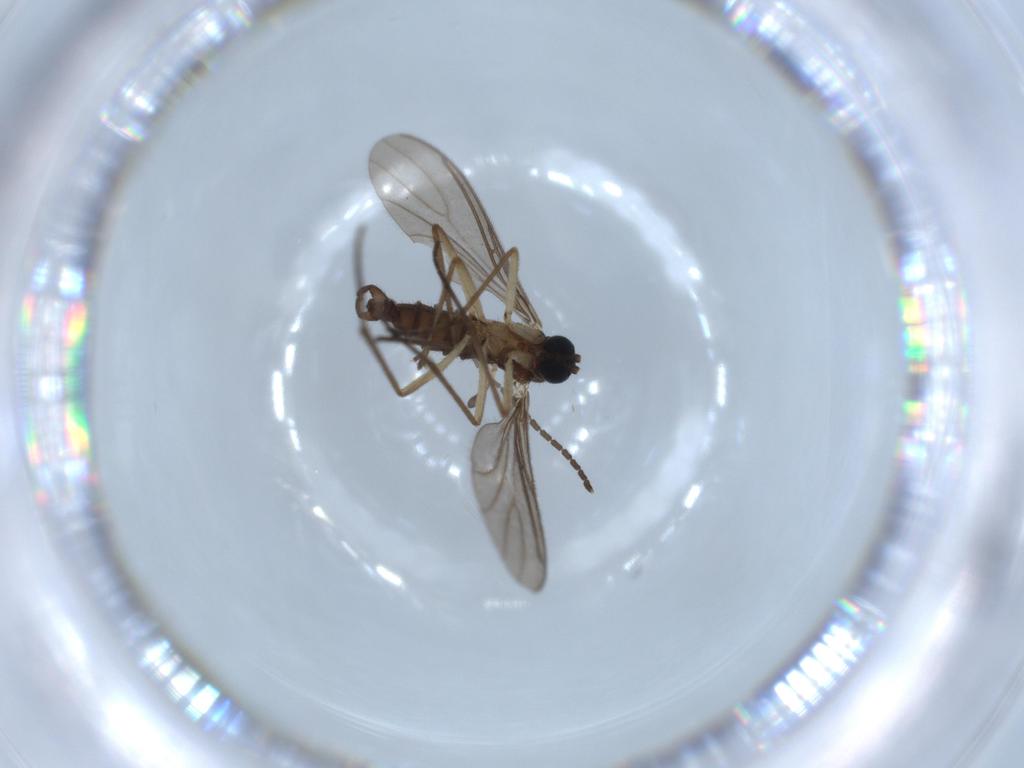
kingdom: Animalia
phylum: Arthropoda
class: Insecta
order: Diptera
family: Sciaridae
